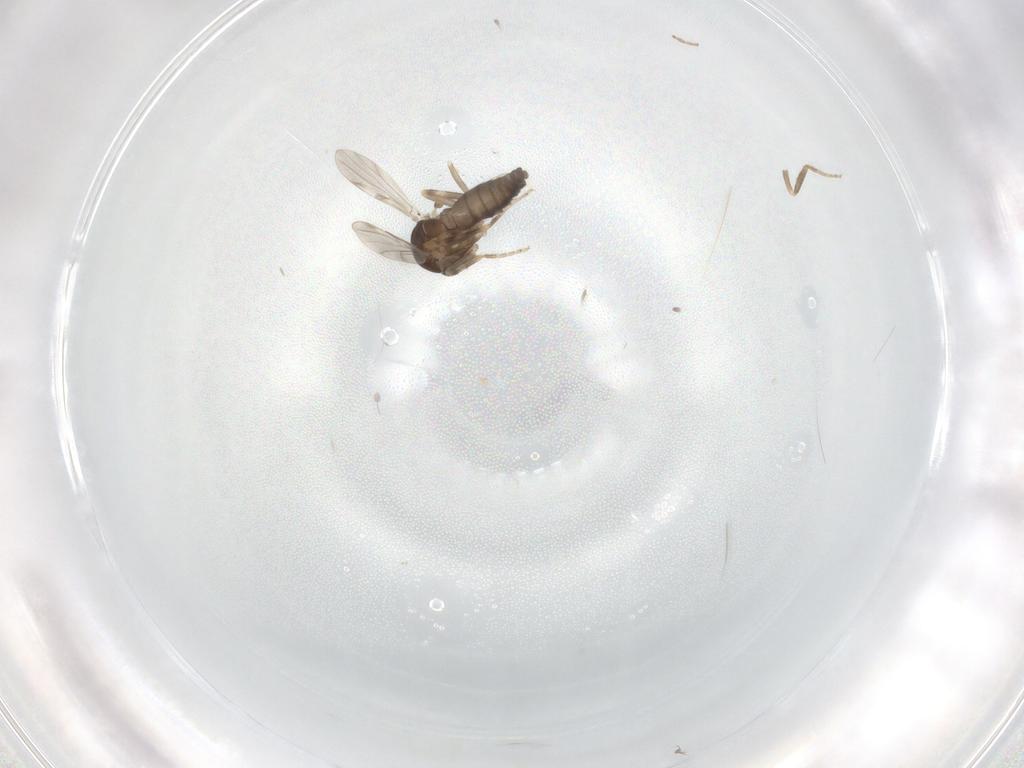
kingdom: Animalia
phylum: Arthropoda
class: Insecta
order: Diptera
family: Ceratopogonidae
